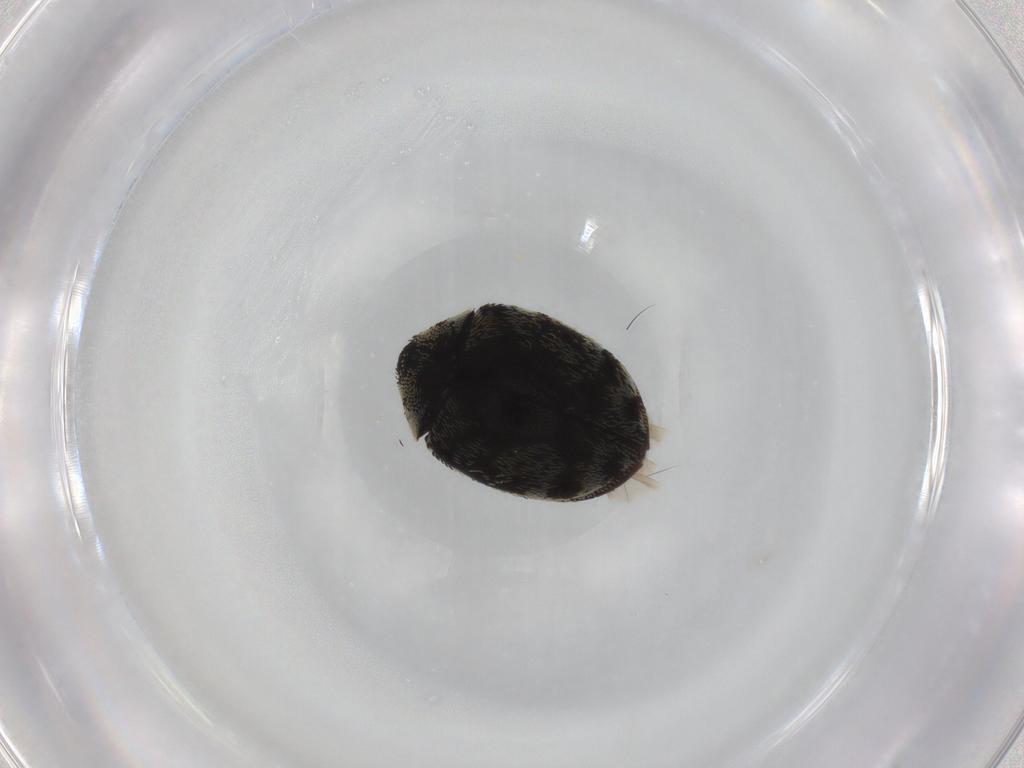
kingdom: Animalia
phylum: Arthropoda
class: Insecta
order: Coleoptera
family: Dermestidae
